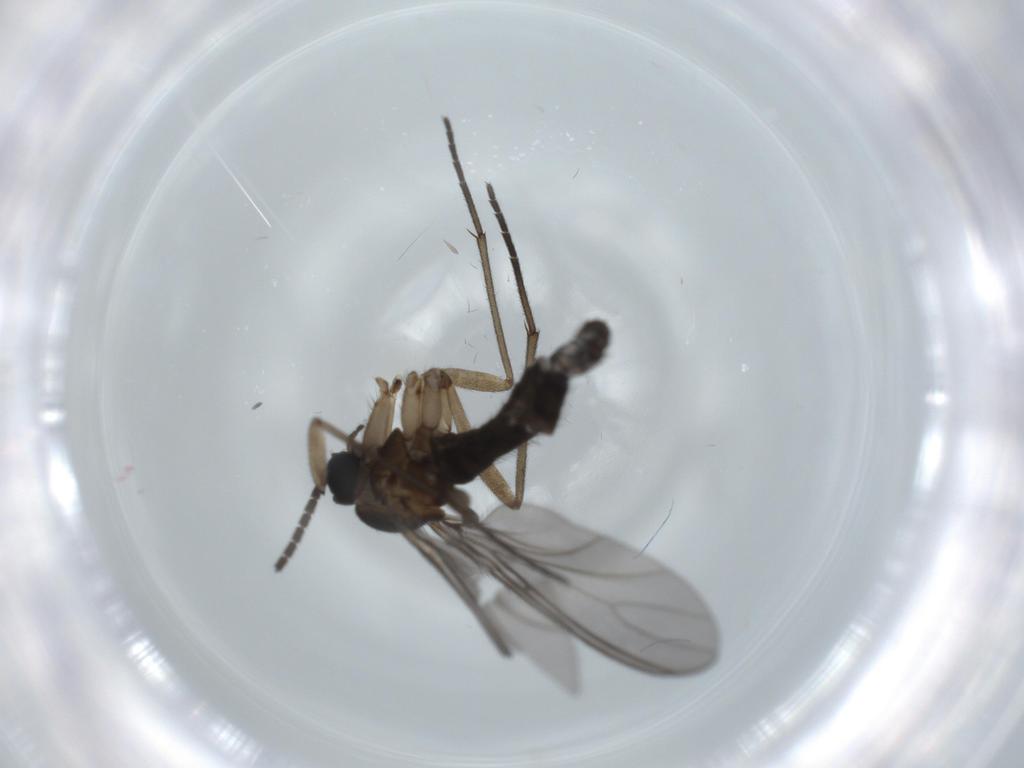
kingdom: Animalia
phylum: Arthropoda
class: Insecta
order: Diptera
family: Sciaridae
